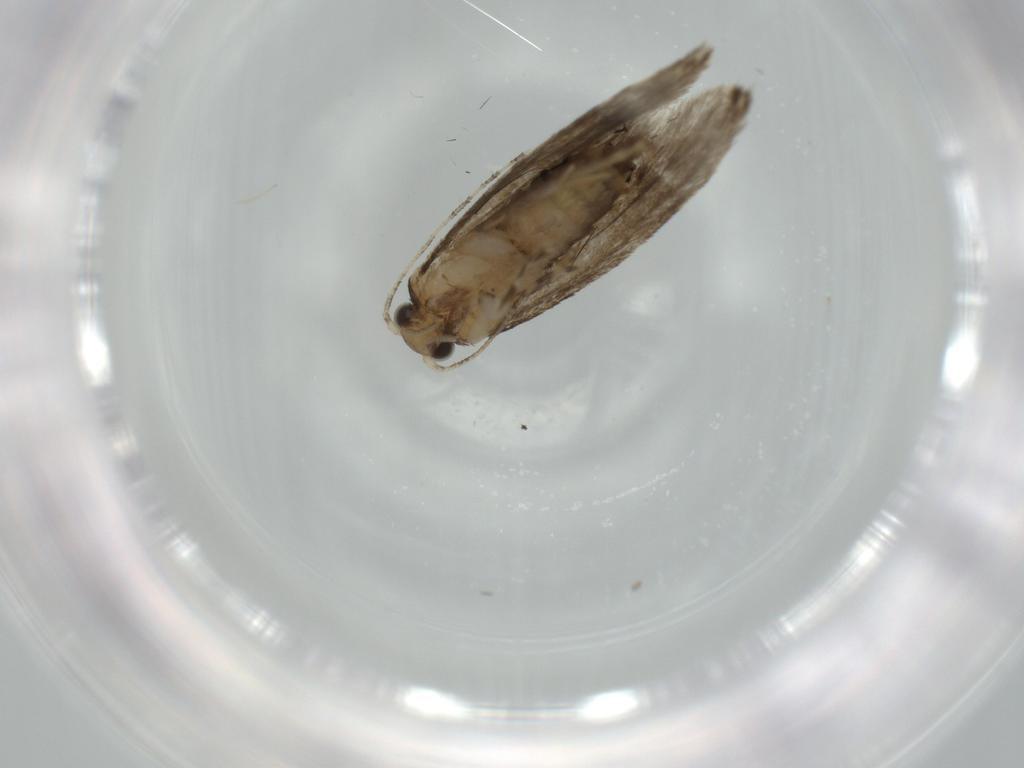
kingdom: Animalia
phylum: Arthropoda
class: Insecta
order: Lepidoptera
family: Tineidae
